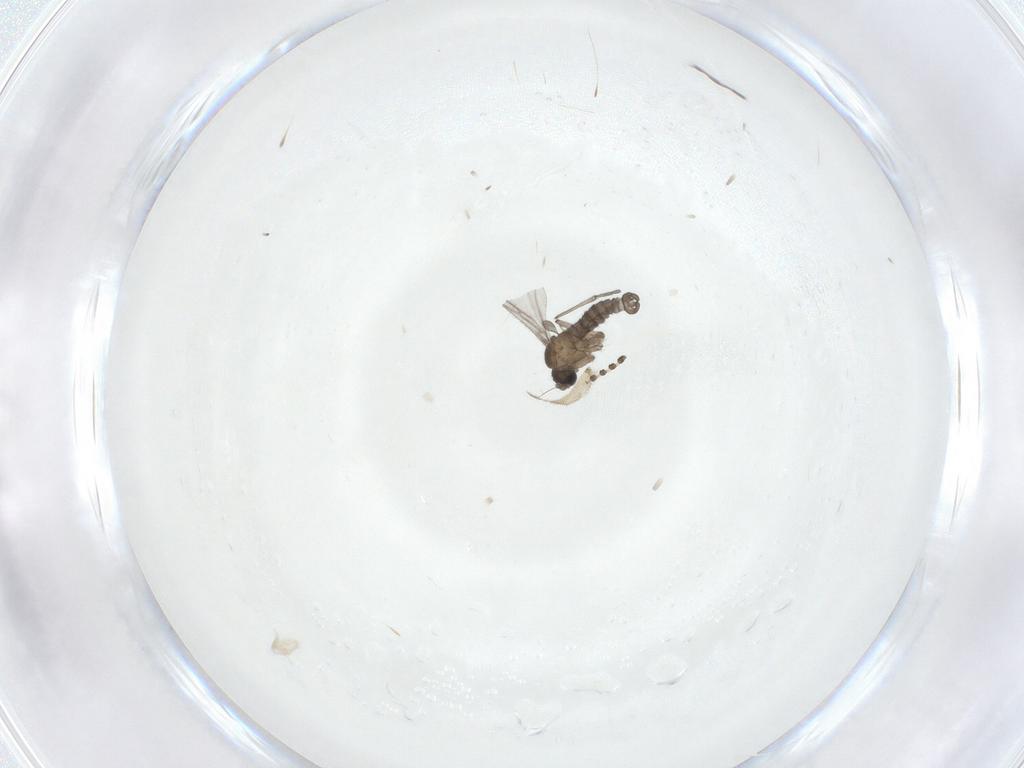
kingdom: Animalia
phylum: Arthropoda
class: Insecta
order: Diptera
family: Sciaridae
